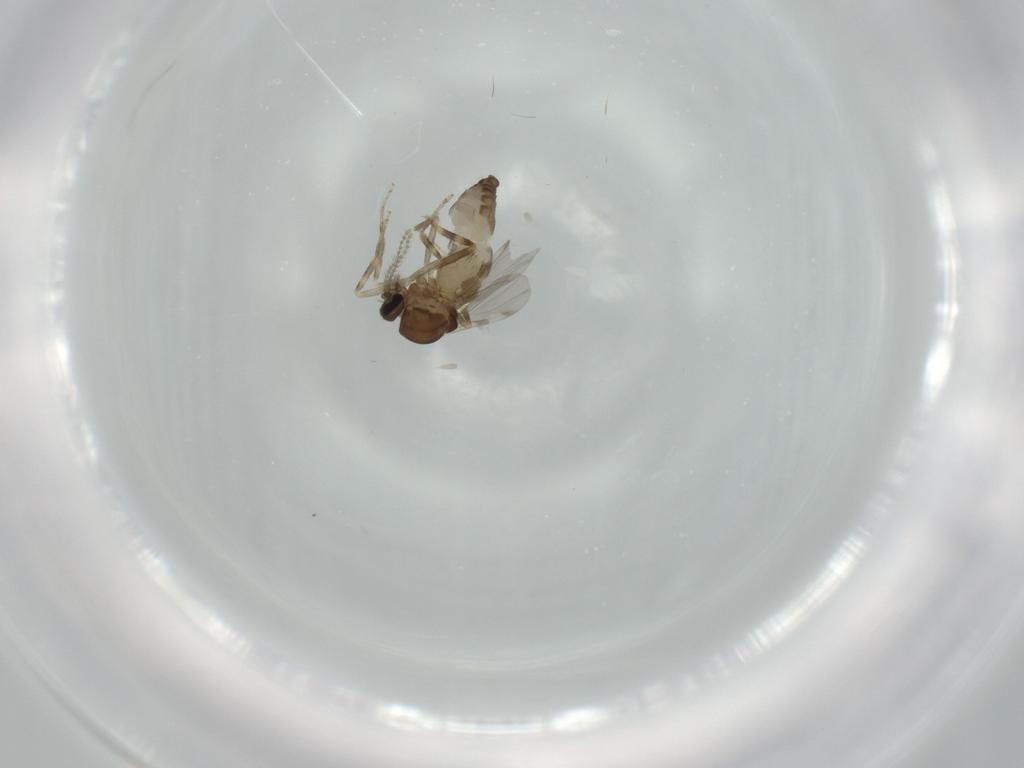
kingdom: Animalia
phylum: Arthropoda
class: Insecta
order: Diptera
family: Ceratopogonidae
